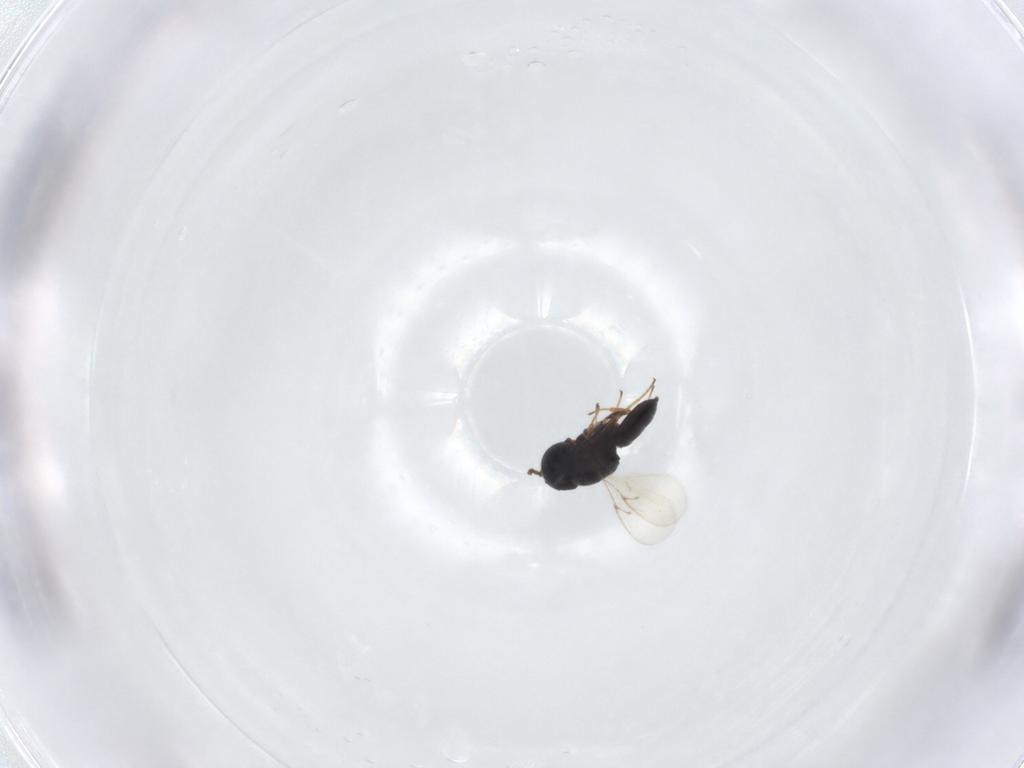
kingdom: Animalia
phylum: Arthropoda
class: Insecta
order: Hymenoptera
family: Scelionidae
